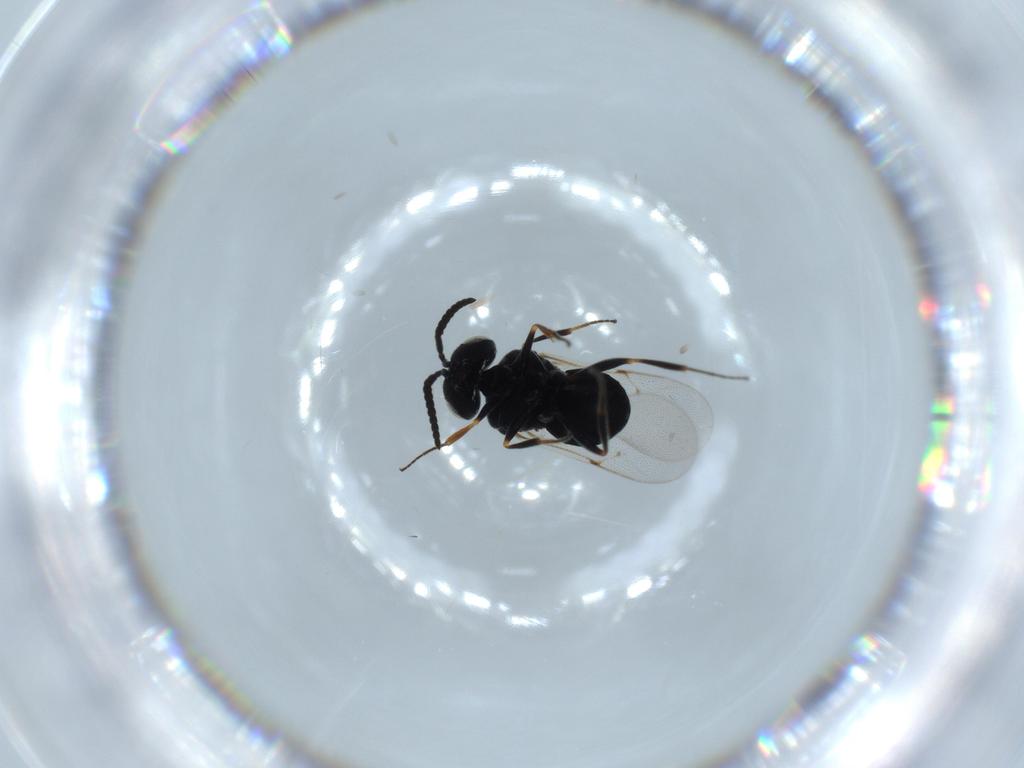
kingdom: Animalia
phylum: Arthropoda
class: Insecta
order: Hymenoptera
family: Scelionidae
